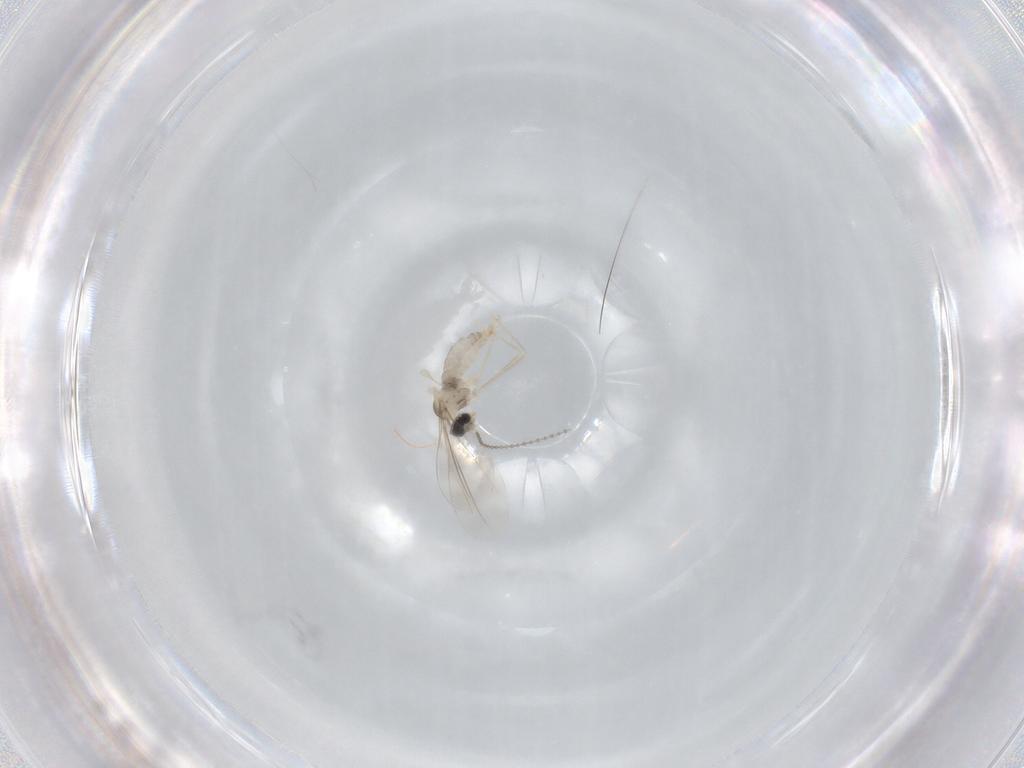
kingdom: Animalia
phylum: Arthropoda
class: Insecta
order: Diptera
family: Cecidomyiidae
